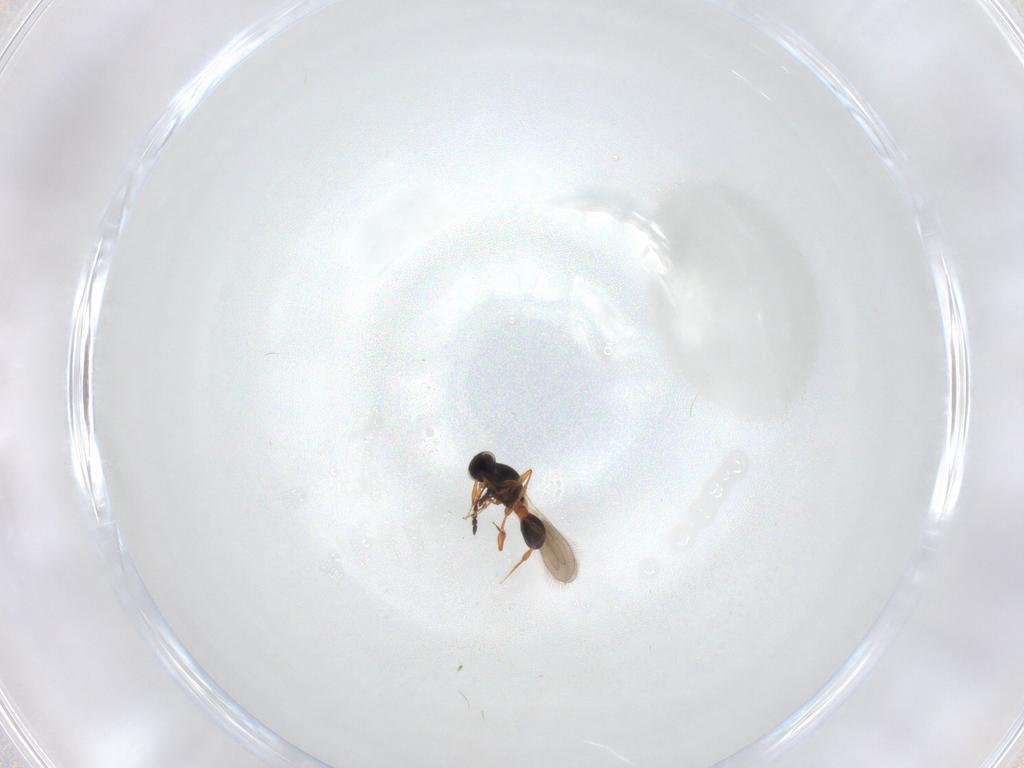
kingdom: Animalia
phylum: Arthropoda
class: Insecta
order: Hymenoptera
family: Platygastridae
